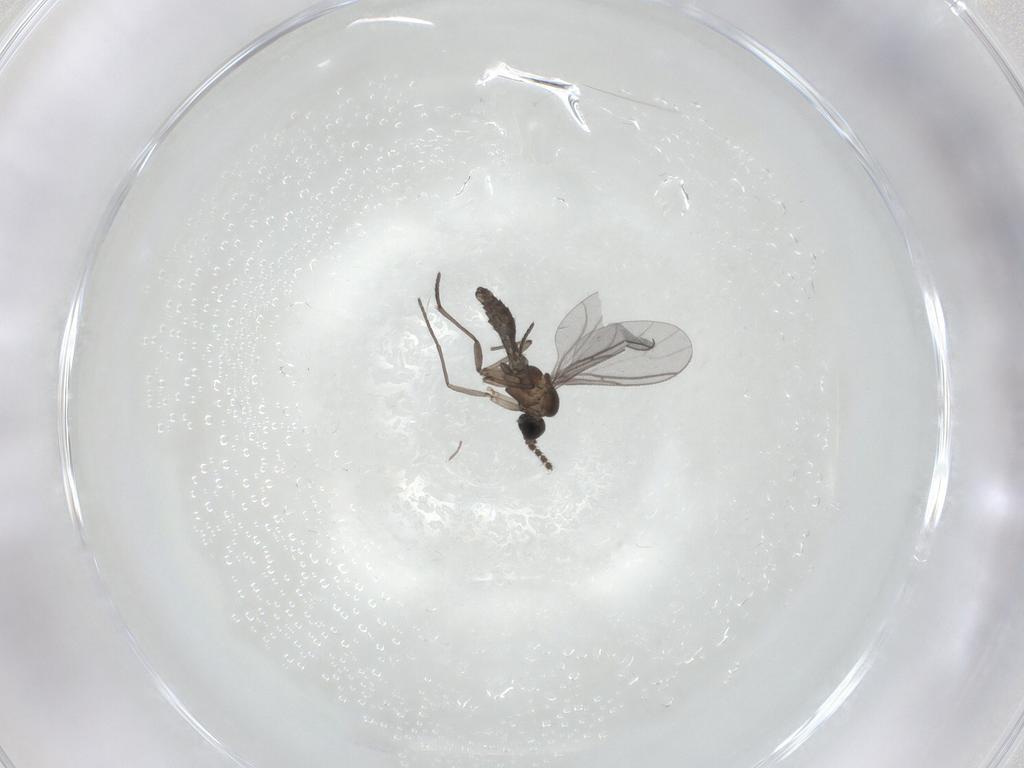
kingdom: Animalia
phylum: Arthropoda
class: Insecta
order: Diptera
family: Sciaridae
